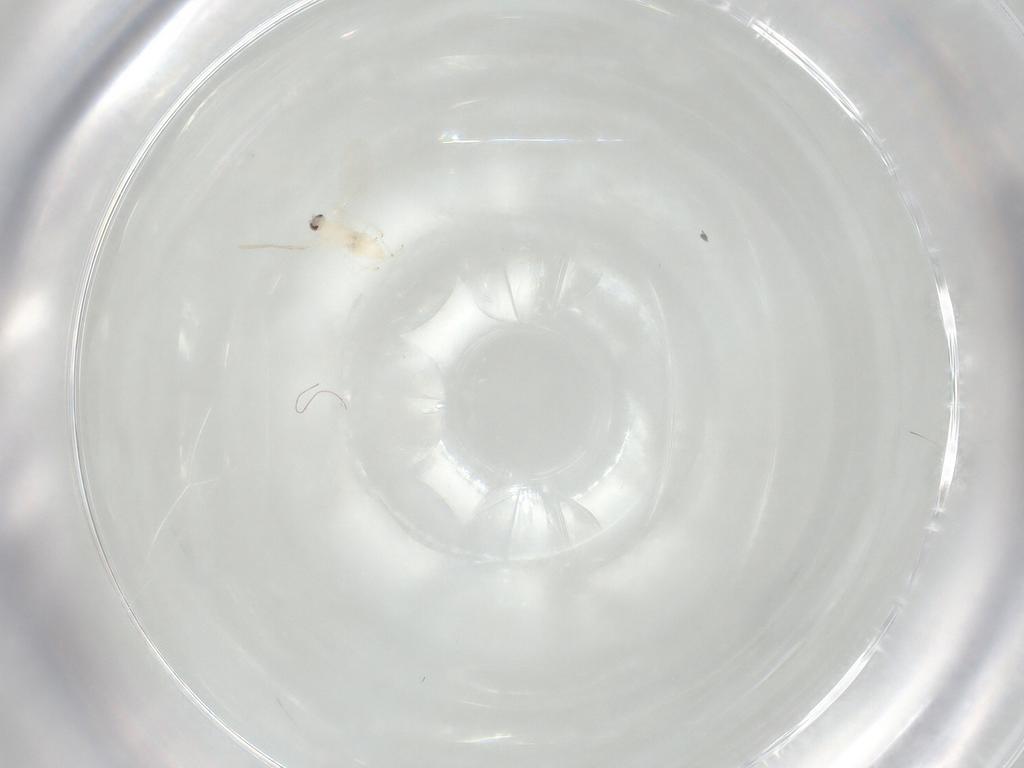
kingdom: Animalia
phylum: Arthropoda
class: Insecta
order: Diptera
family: Cecidomyiidae
